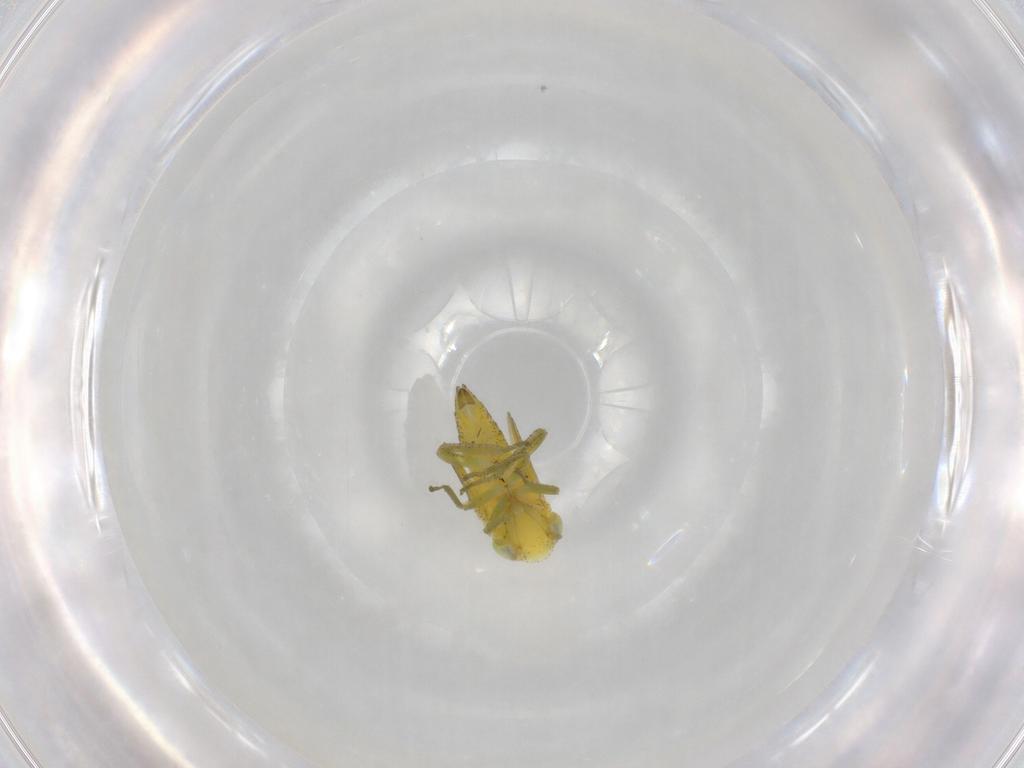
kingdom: Animalia
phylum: Arthropoda
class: Insecta
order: Hemiptera
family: Cicadellidae
